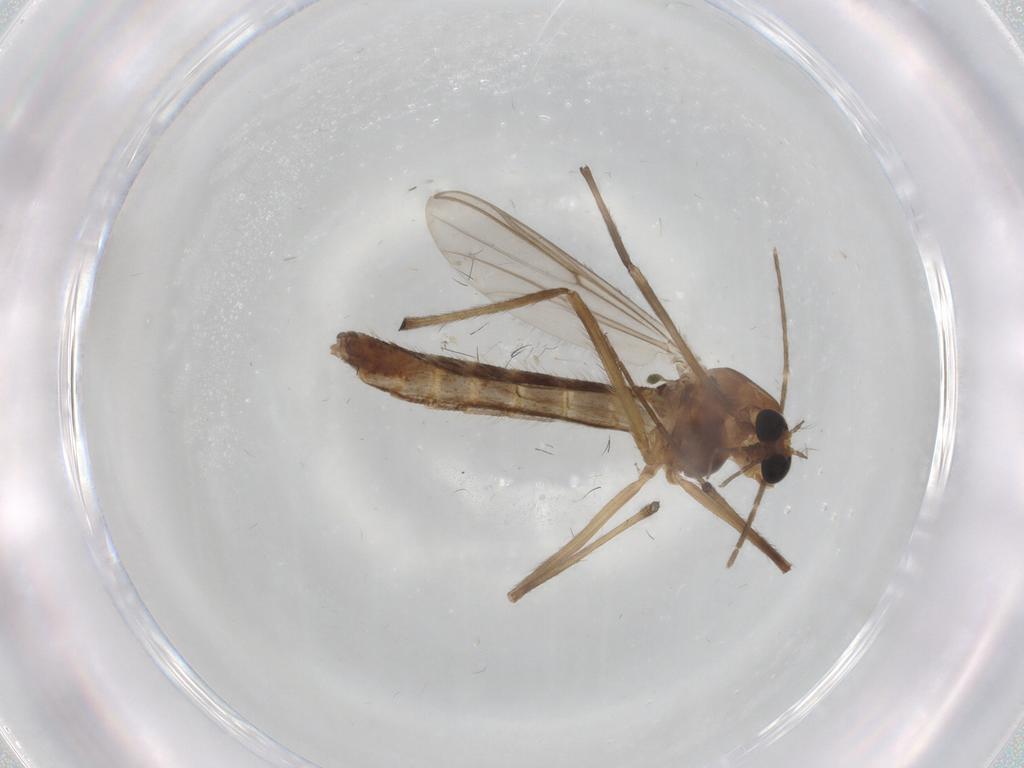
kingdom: Animalia
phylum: Arthropoda
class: Insecta
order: Diptera
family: Chironomidae
